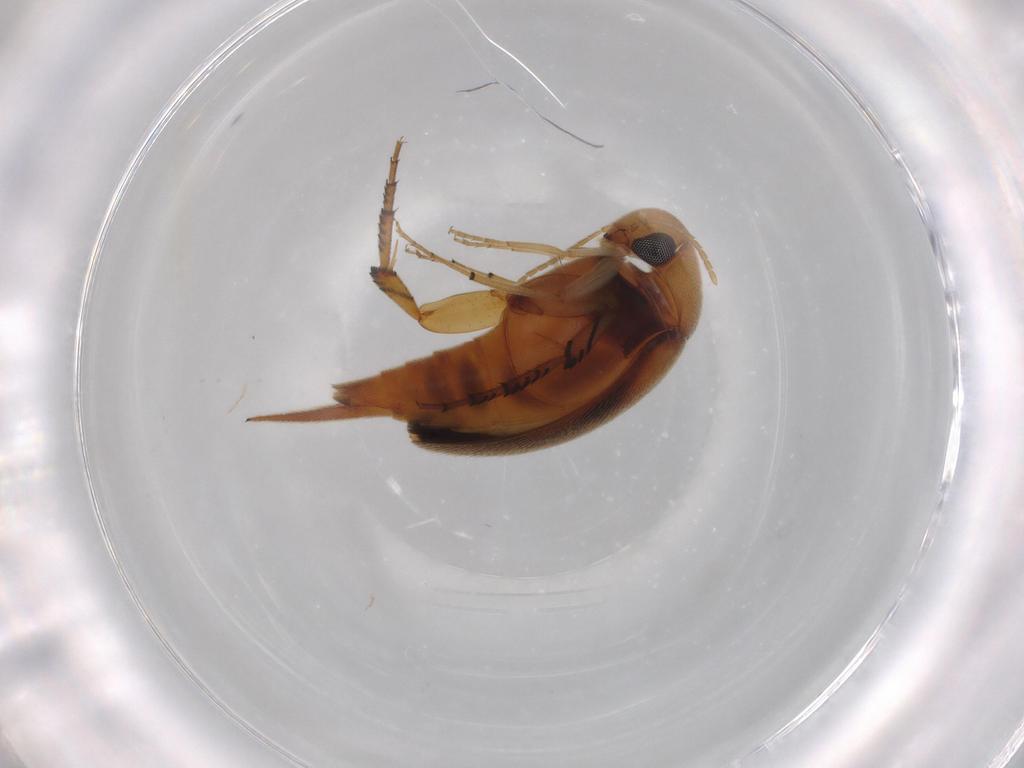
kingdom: Animalia
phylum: Arthropoda
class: Insecta
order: Coleoptera
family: Mordellidae
